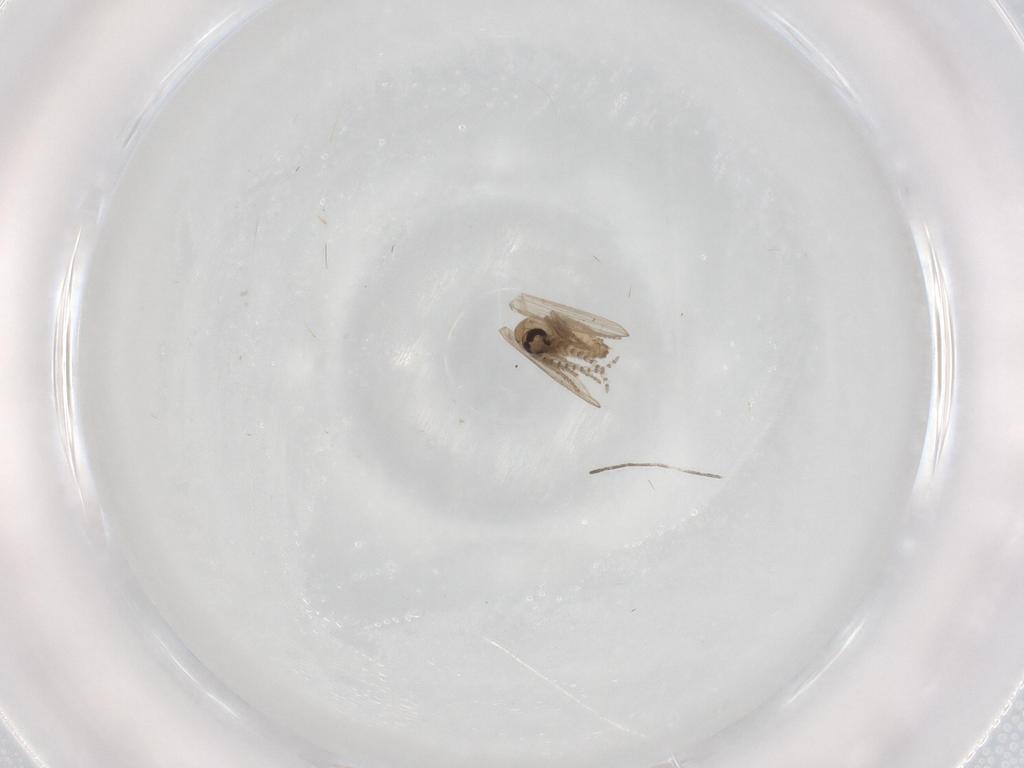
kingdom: Animalia
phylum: Arthropoda
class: Insecta
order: Diptera
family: Psychodidae
